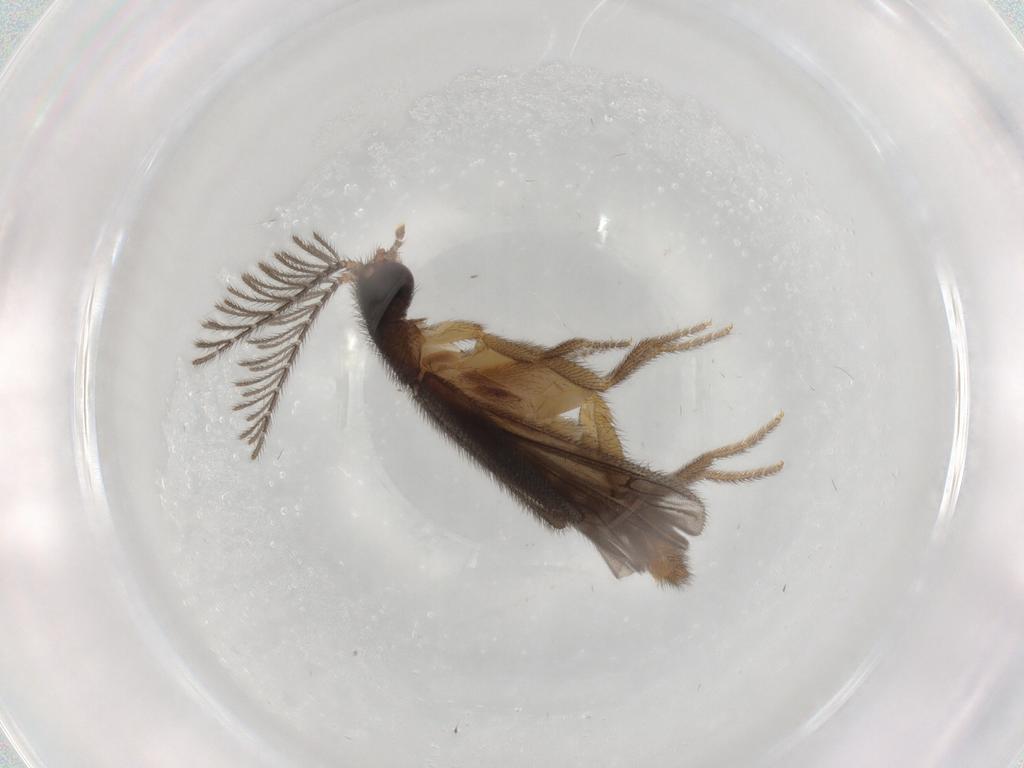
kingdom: Animalia
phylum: Arthropoda
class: Insecta
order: Coleoptera
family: Phengodidae
